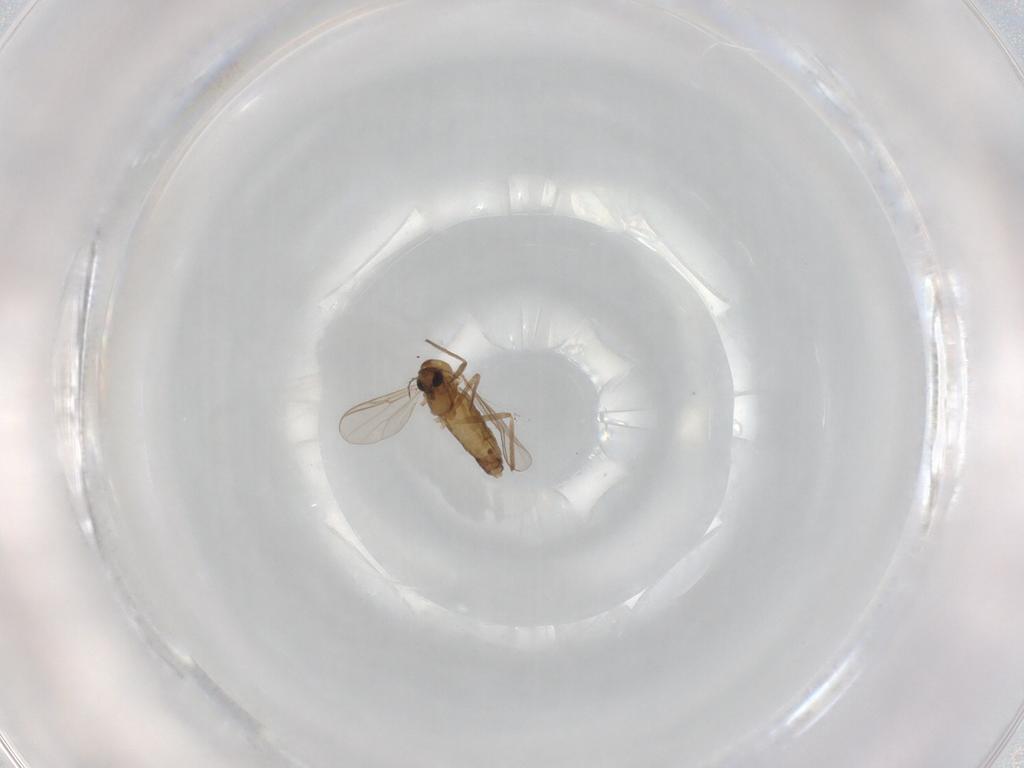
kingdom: Animalia
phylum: Arthropoda
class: Insecta
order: Diptera
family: Chironomidae
